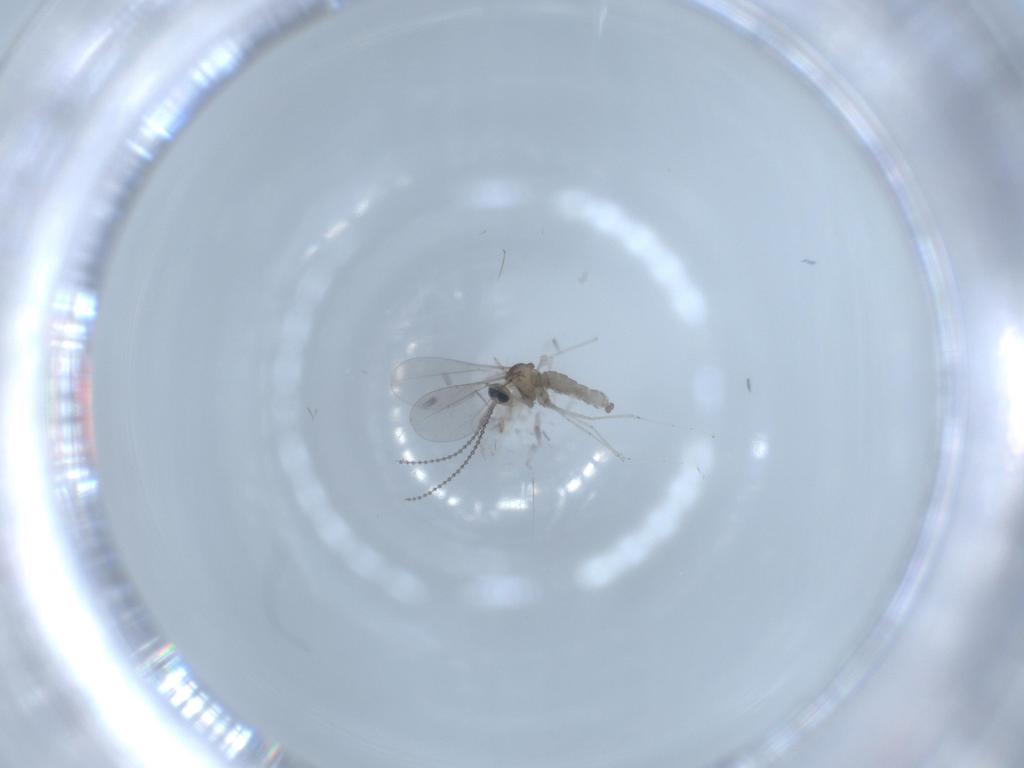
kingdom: Animalia
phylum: Arthropoda
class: Insecta
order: Diptera
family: Cecidomyiidae
